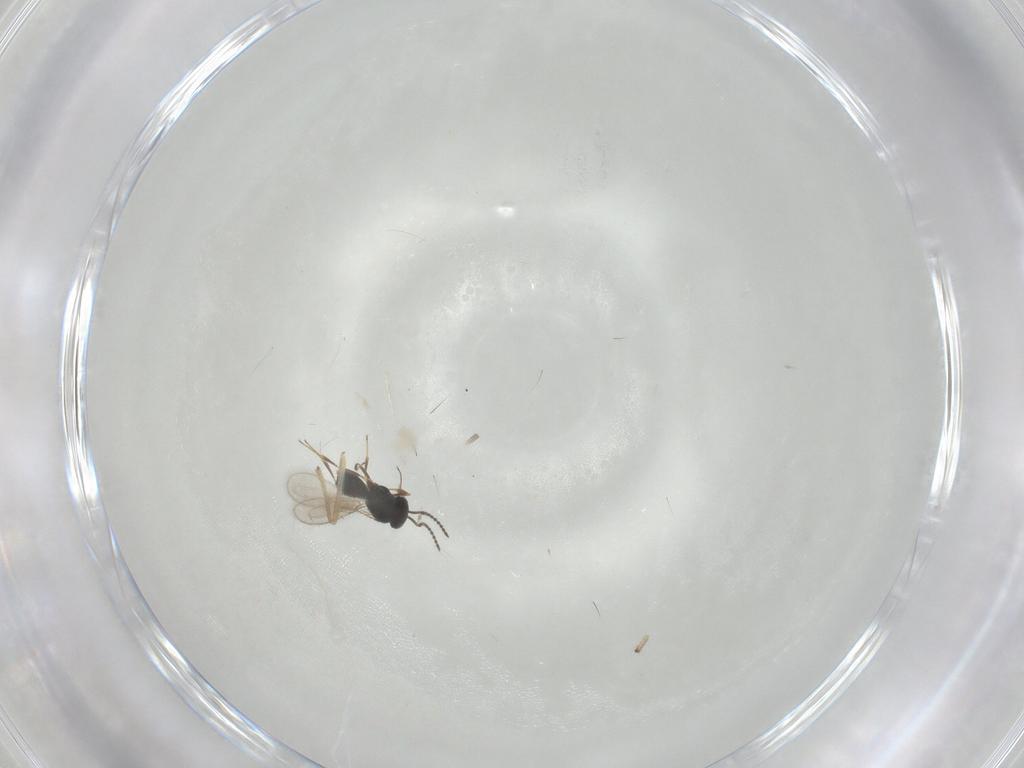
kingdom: Animalia
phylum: Arthropoda
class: Insecta
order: Hymenoptera
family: Scelionidae
